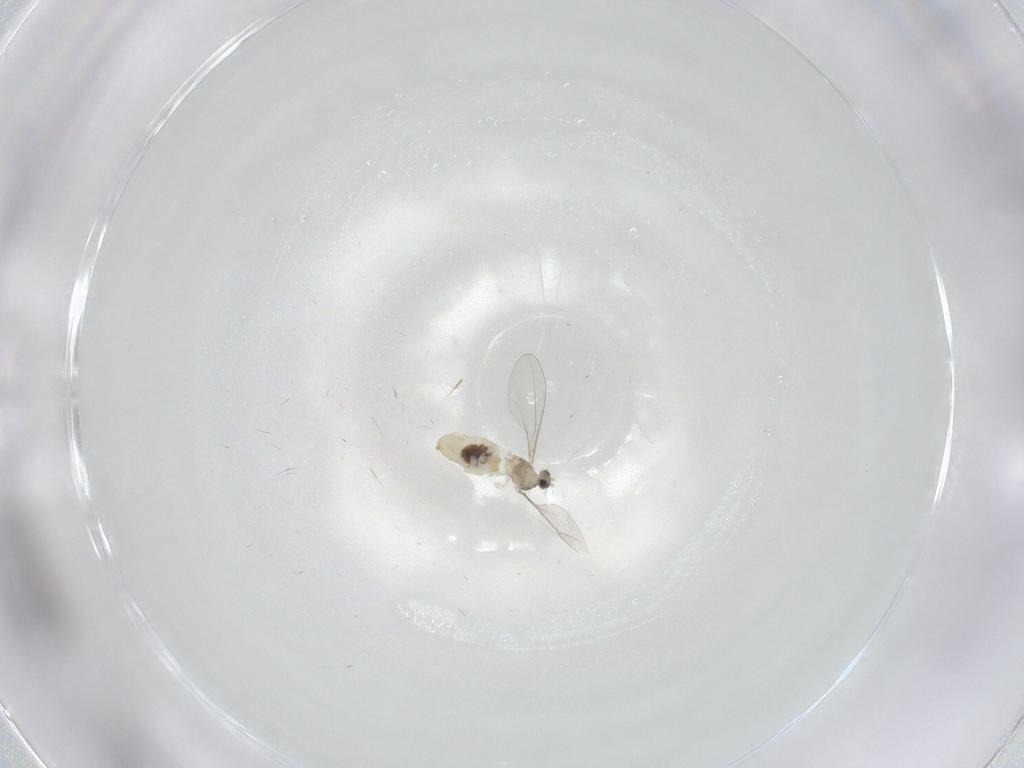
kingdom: Animalia
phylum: Arthropoda
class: Insecta
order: Diptera
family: Cecidomyiidae
